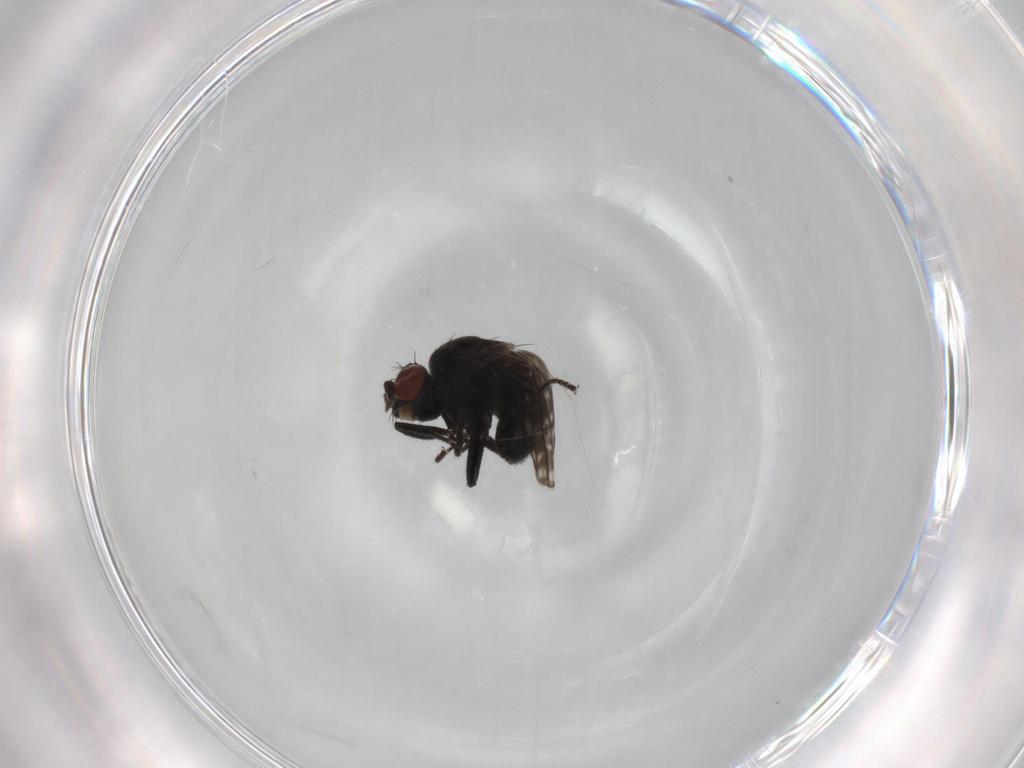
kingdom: Animalia
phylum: Arthropoda
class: Insecta
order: Diptera
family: Ephydridae
